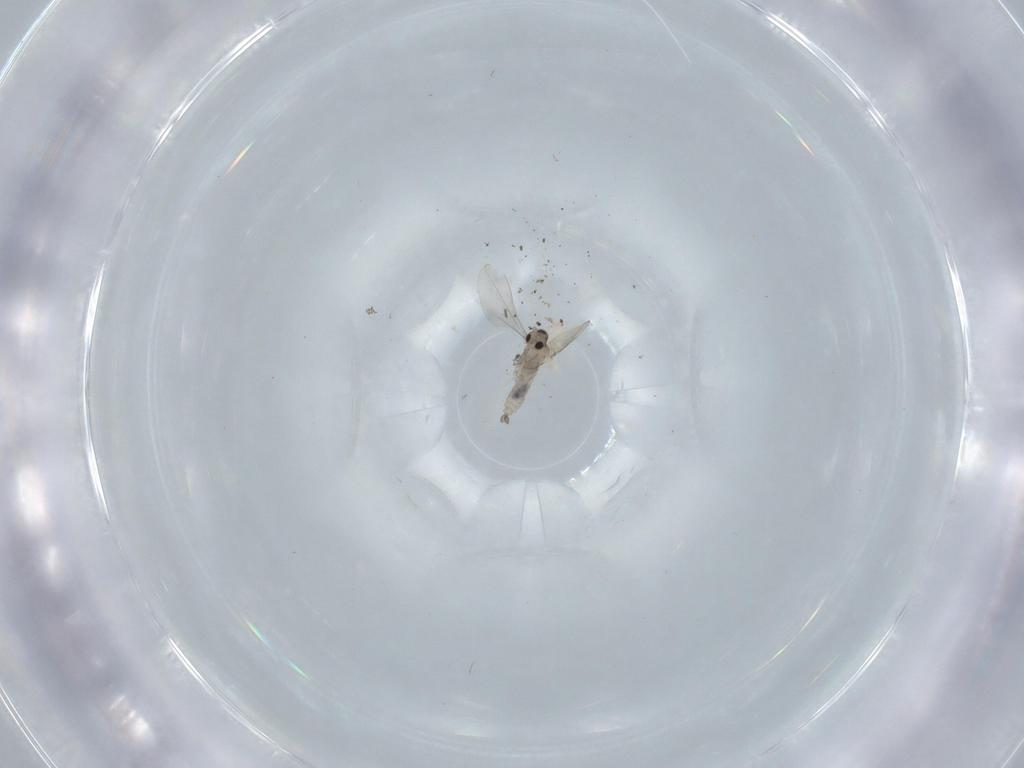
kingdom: Animalia
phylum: Arthropoda
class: Insecta
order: Diptera
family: Cecidomyiidae
